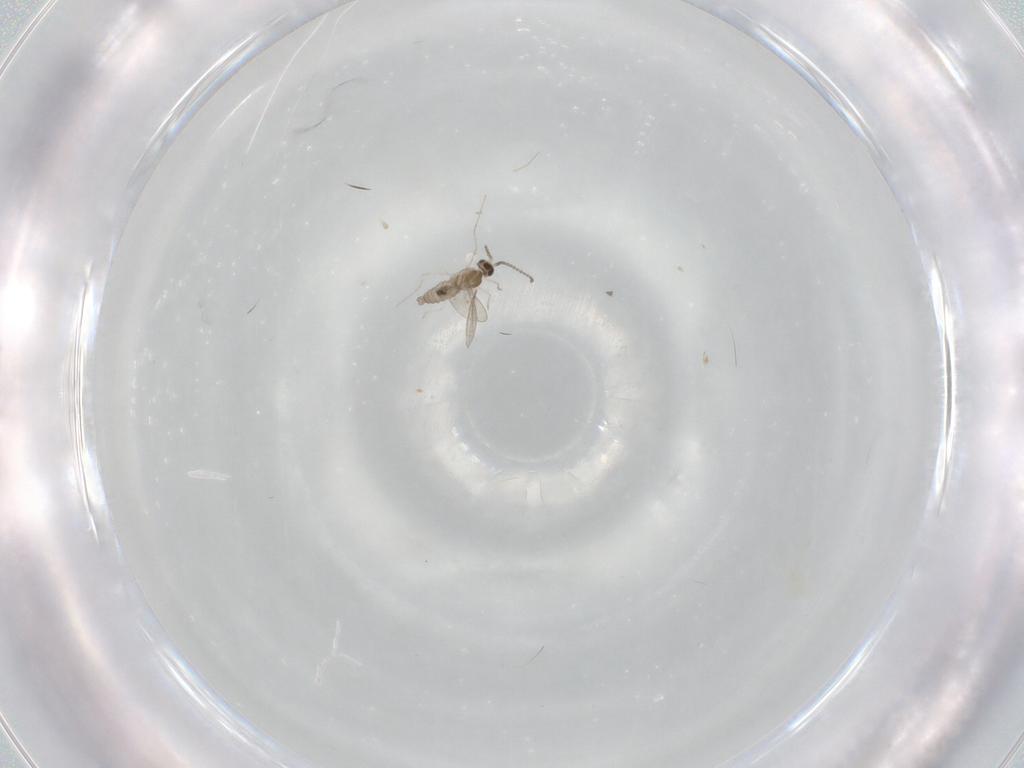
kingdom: Animalia
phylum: Arthropoda
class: Insecta
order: Diptera
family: Cecidomyiidae
